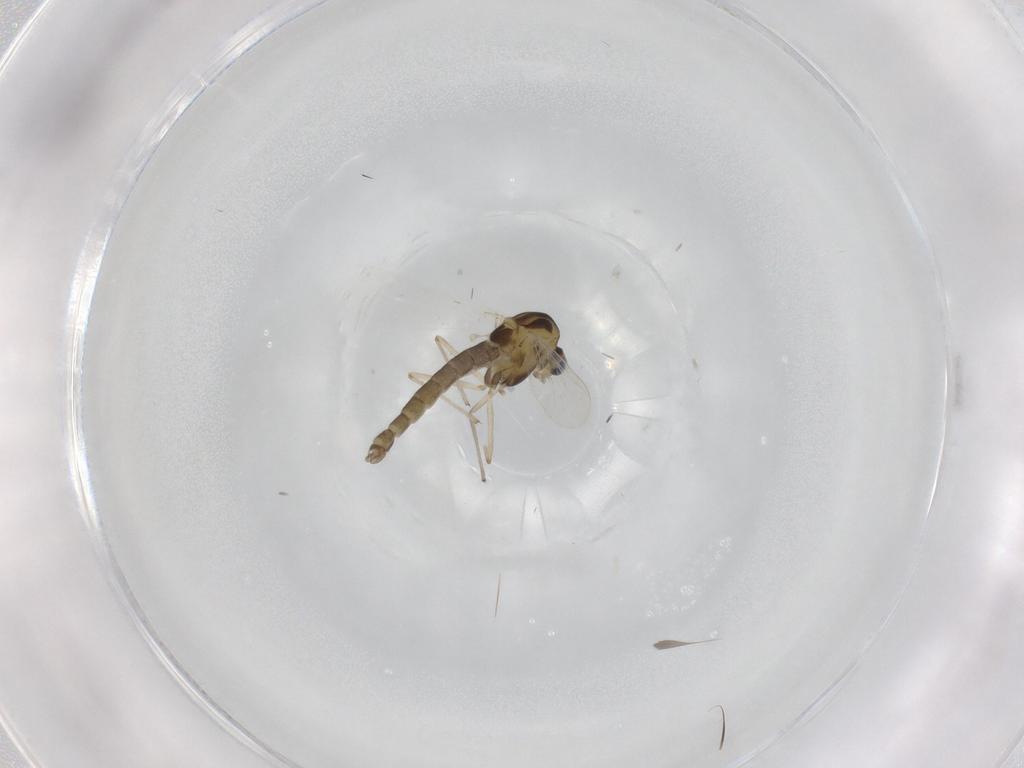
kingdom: Animalia
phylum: Arthropoda
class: Insecta
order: Diptera
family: Chironomidae
